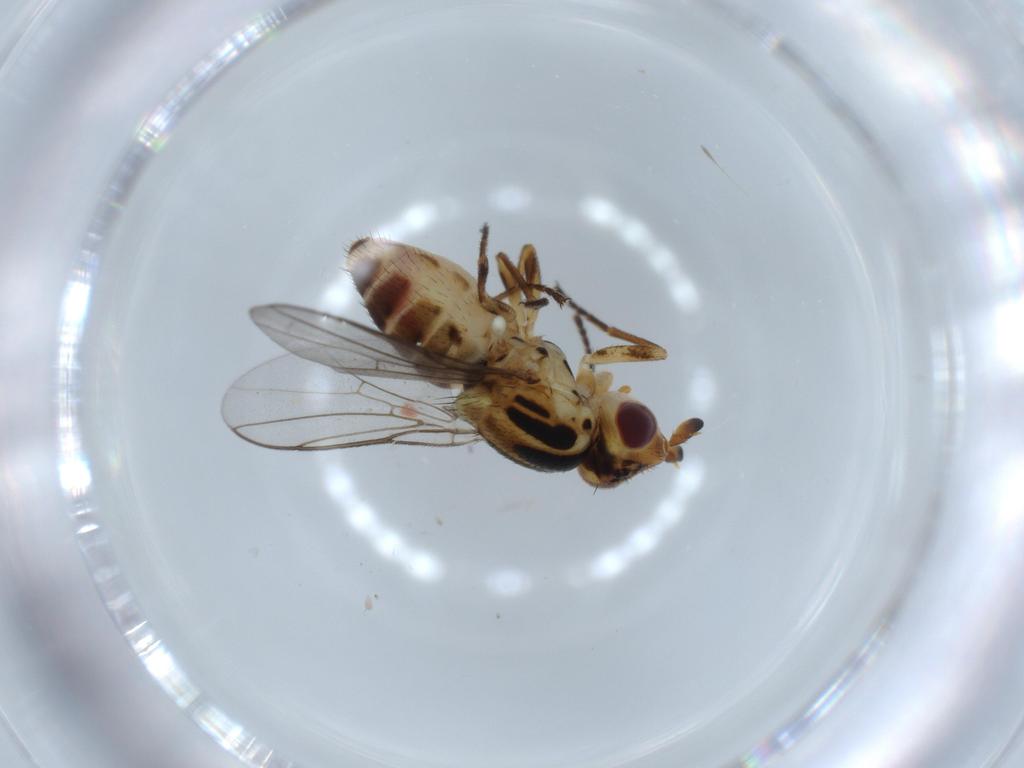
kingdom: Animalia
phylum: Arthropoda
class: Insecta
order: Diptera
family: Chloropidae
